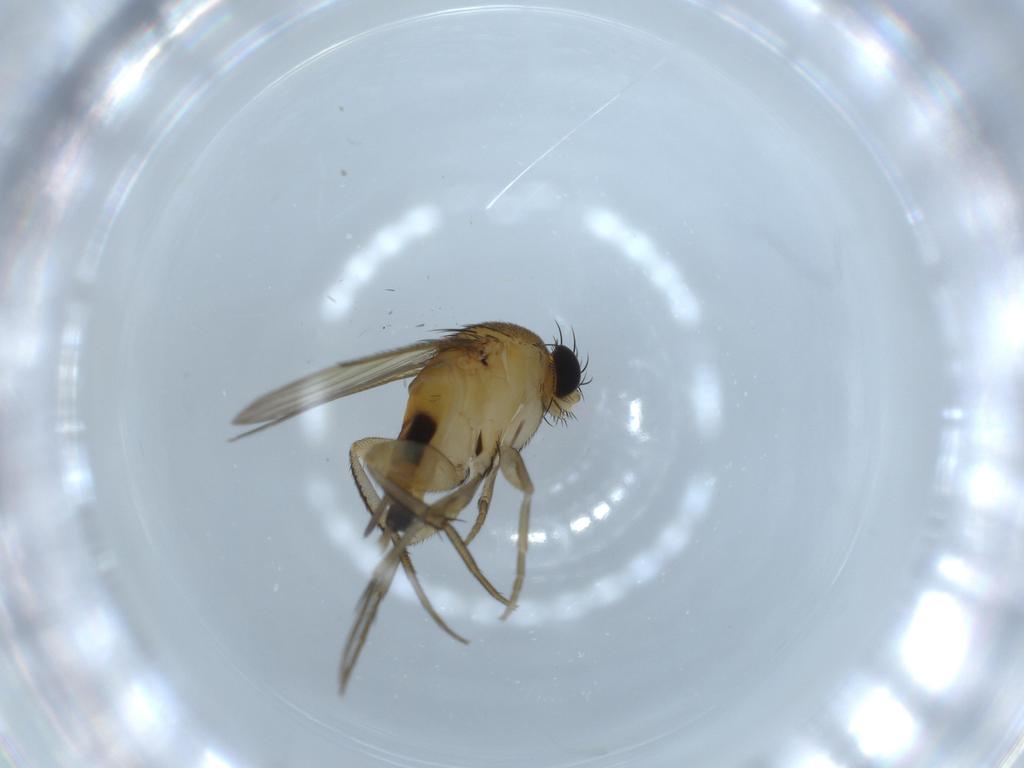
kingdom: Animalia
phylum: Arthropoda
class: Insecta
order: Diptera
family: Phoridae
